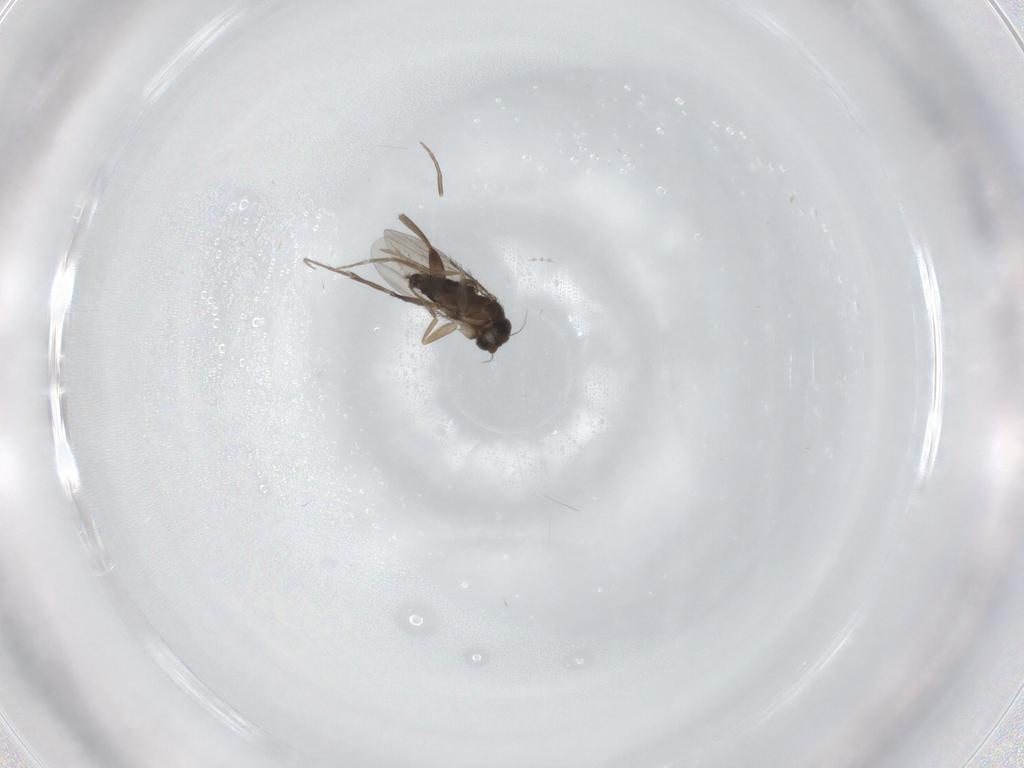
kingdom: Animalia
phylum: Arthropoda
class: Insecta
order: Diptera
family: Phoridae
